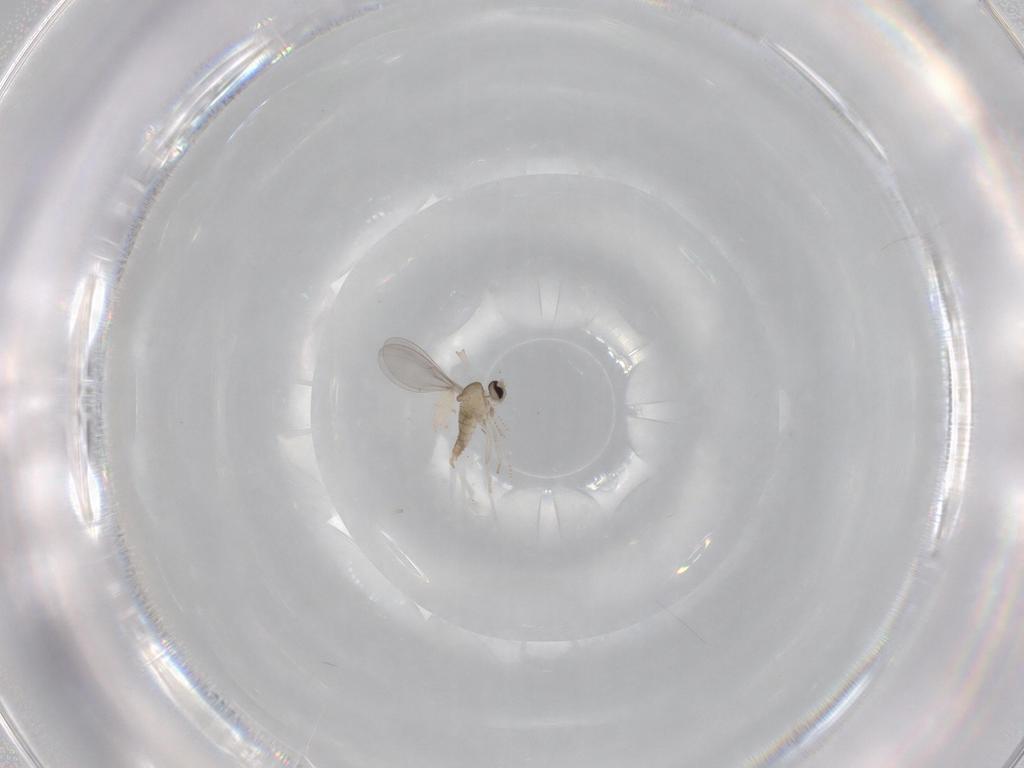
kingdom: Animalia
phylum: Arthropoda
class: Insecta
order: Diptera
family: Cecidomyiidae
